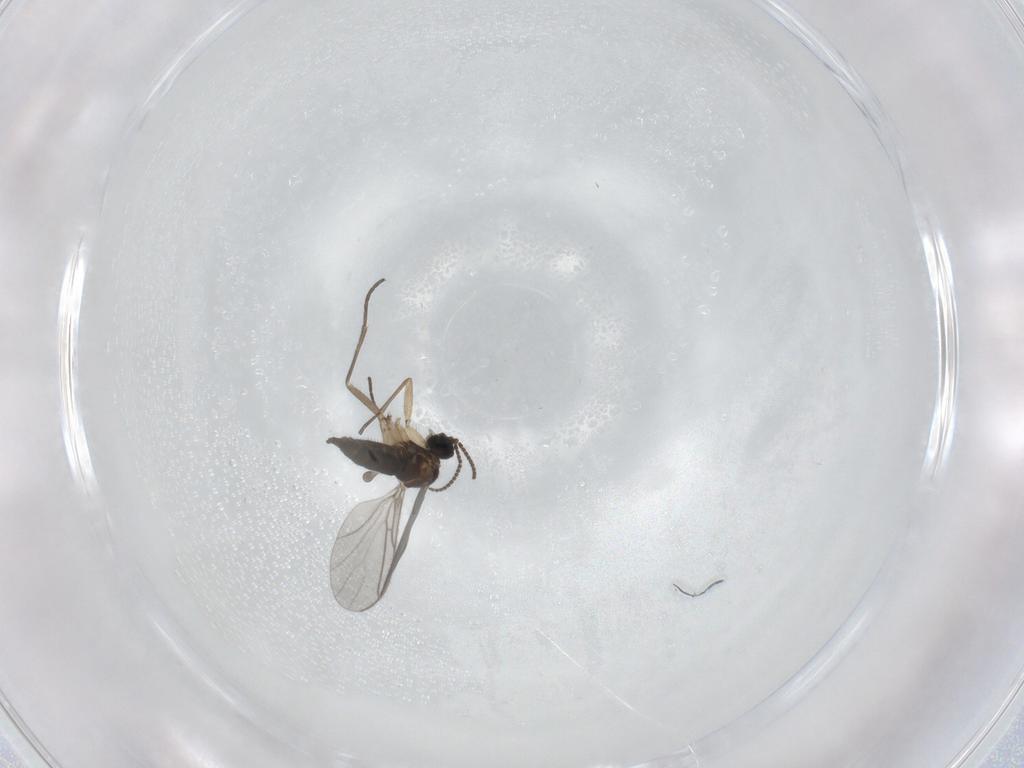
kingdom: Animalia
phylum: Arthropoda
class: Insecta
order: Diptera
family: Sciaridae
